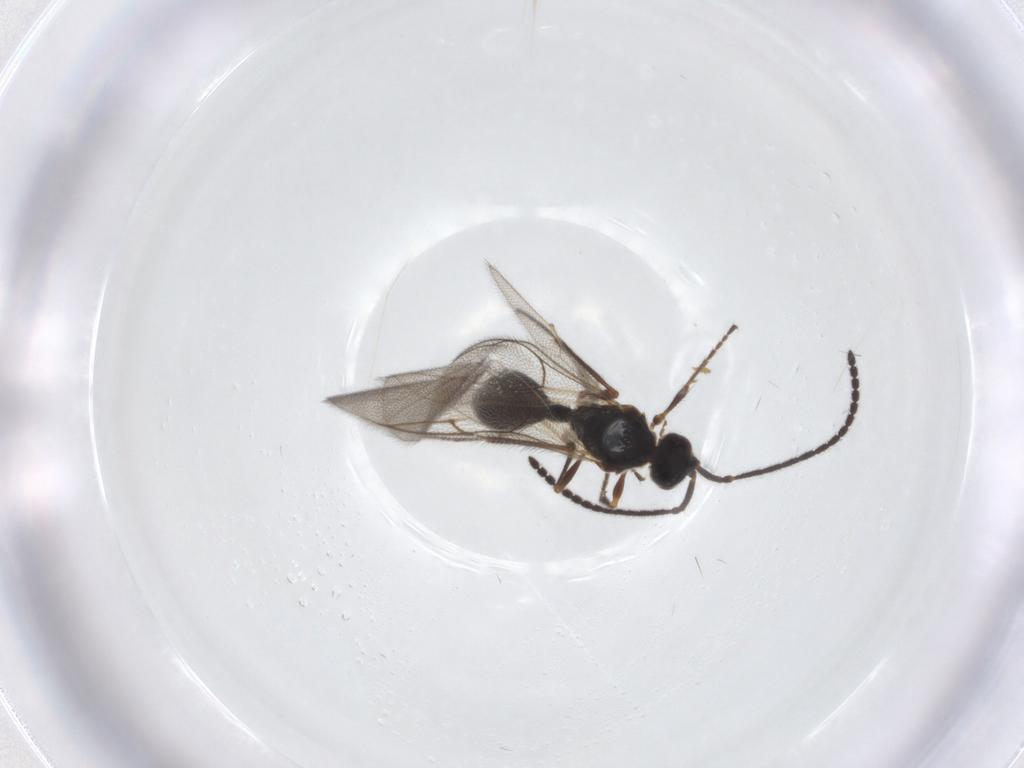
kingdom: Animalia
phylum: Arthropoda
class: Insecta
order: Hymenoptera
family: Diapriidae
